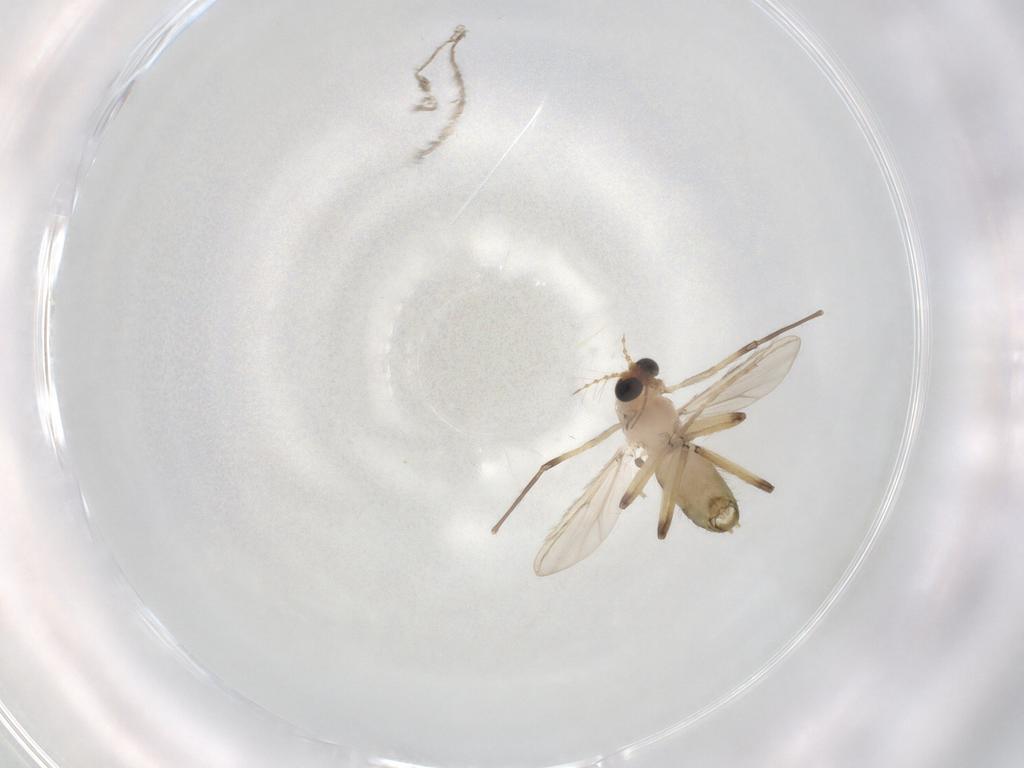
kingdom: Animalia
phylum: Arthropoda
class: Insecta
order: Diptera
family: Chironomidae
